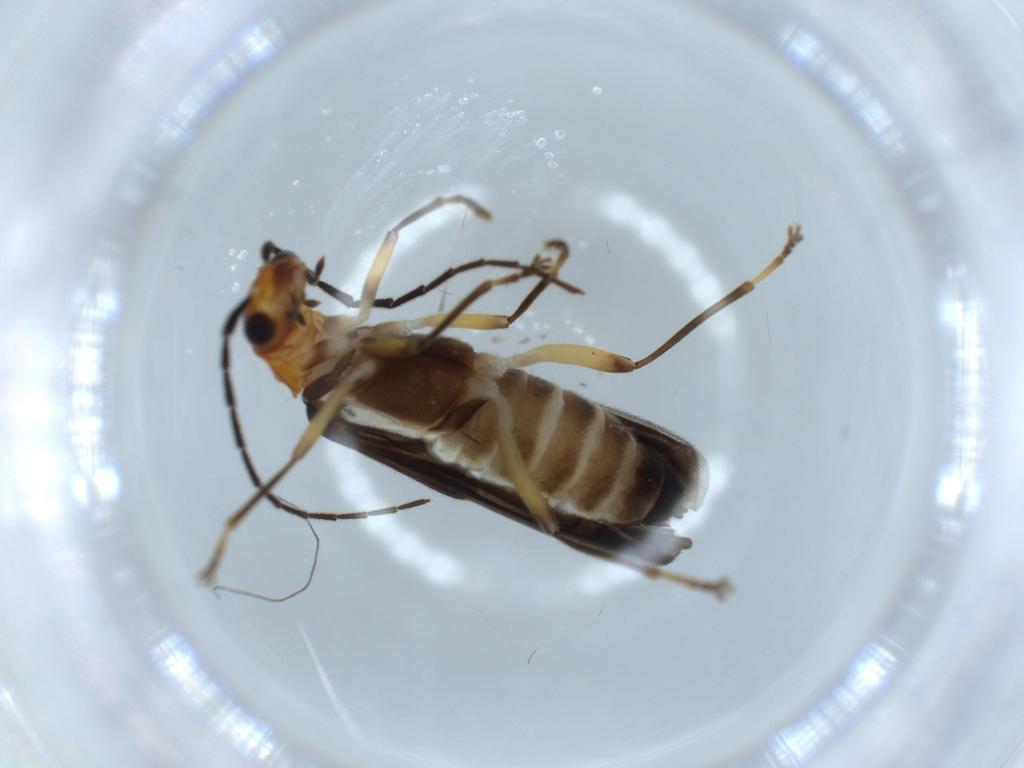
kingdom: Animalia
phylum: Arthropoda
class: Insecta
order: Coleoptera
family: Cantharidae
